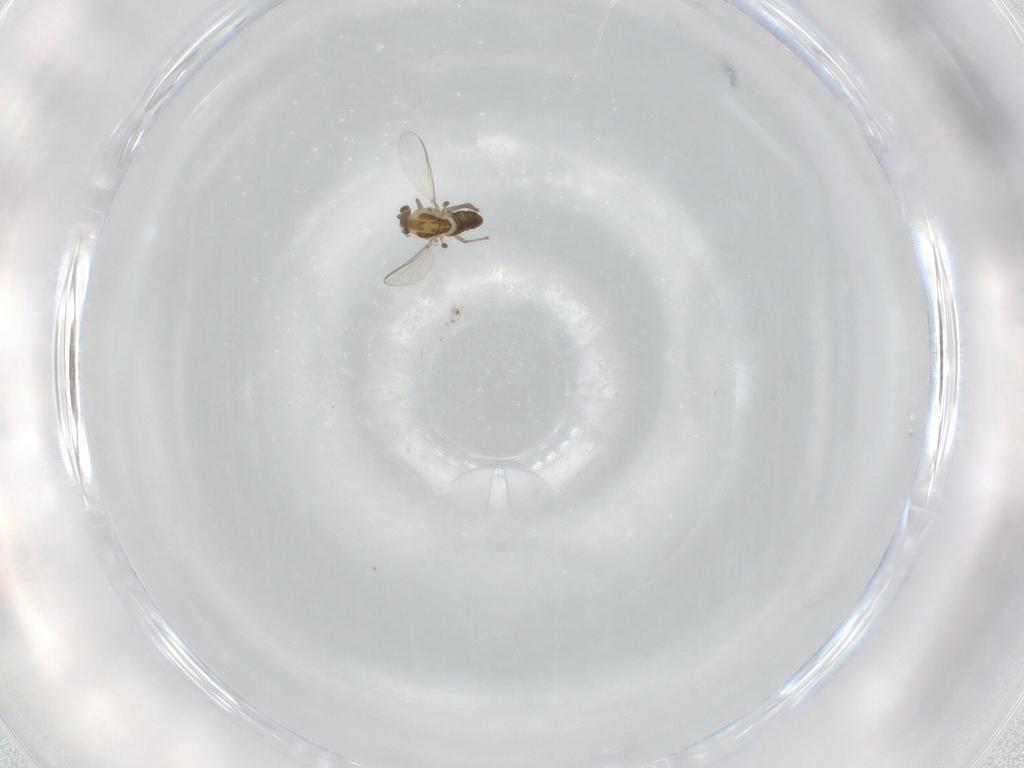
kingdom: Animalia
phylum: Arthropoda
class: Insecta
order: Diptera
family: Chironomidae
